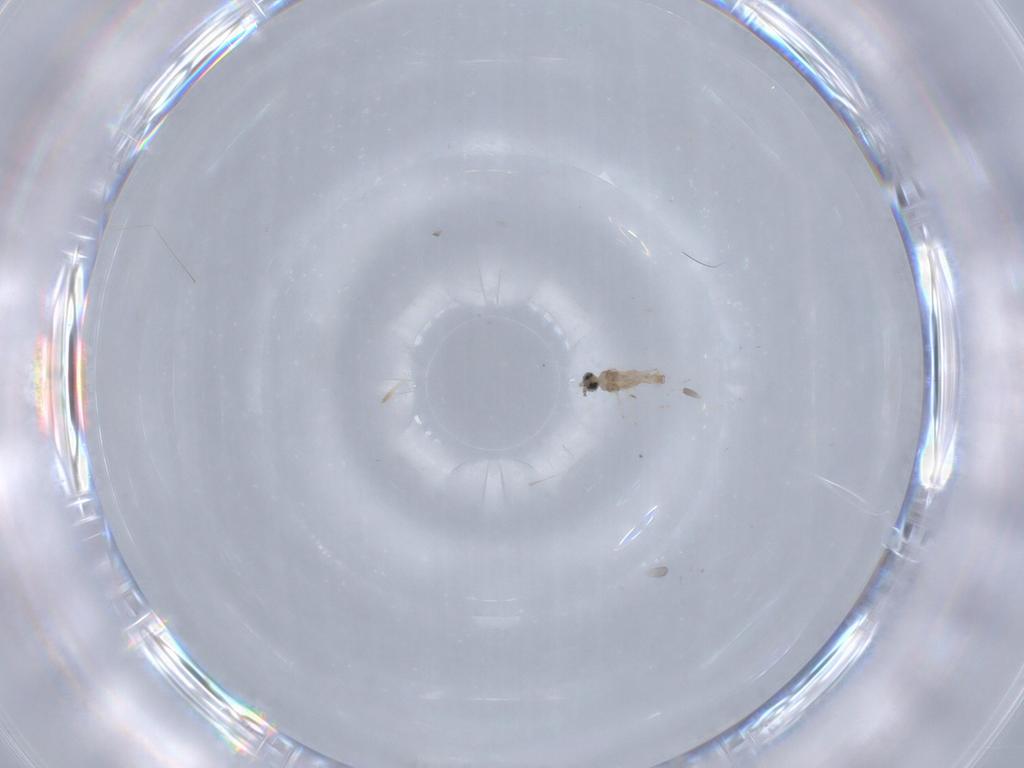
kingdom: Animalia
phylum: Arthropoda
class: Insecta
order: Diptera
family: Cecidomyiidae
